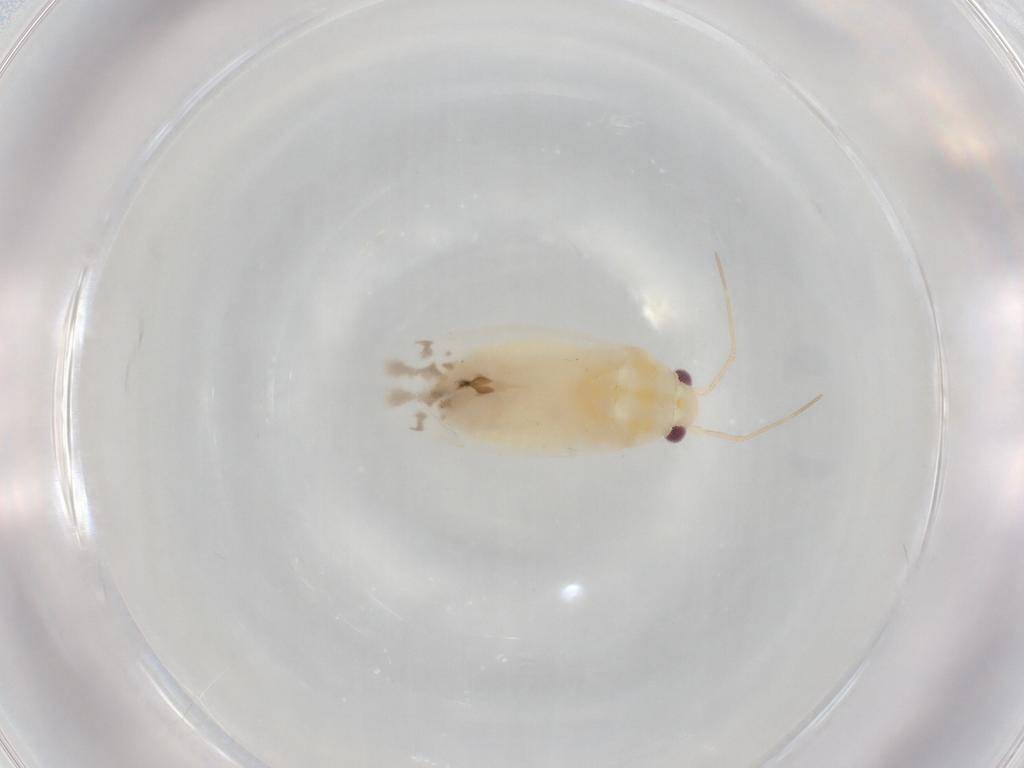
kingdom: Animalia
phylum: Arthropoda
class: Insecta
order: Hemiptera
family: Miridae
